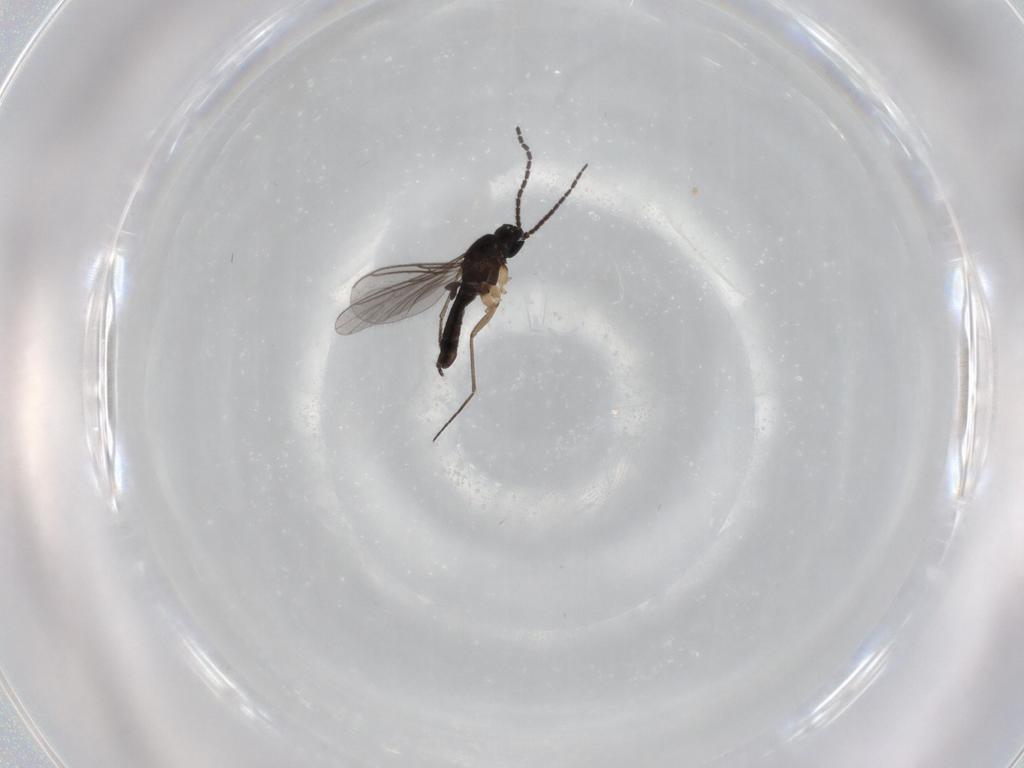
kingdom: Animalia
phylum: Arthropoda
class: Insecta
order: Diptera
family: Sciaridae
